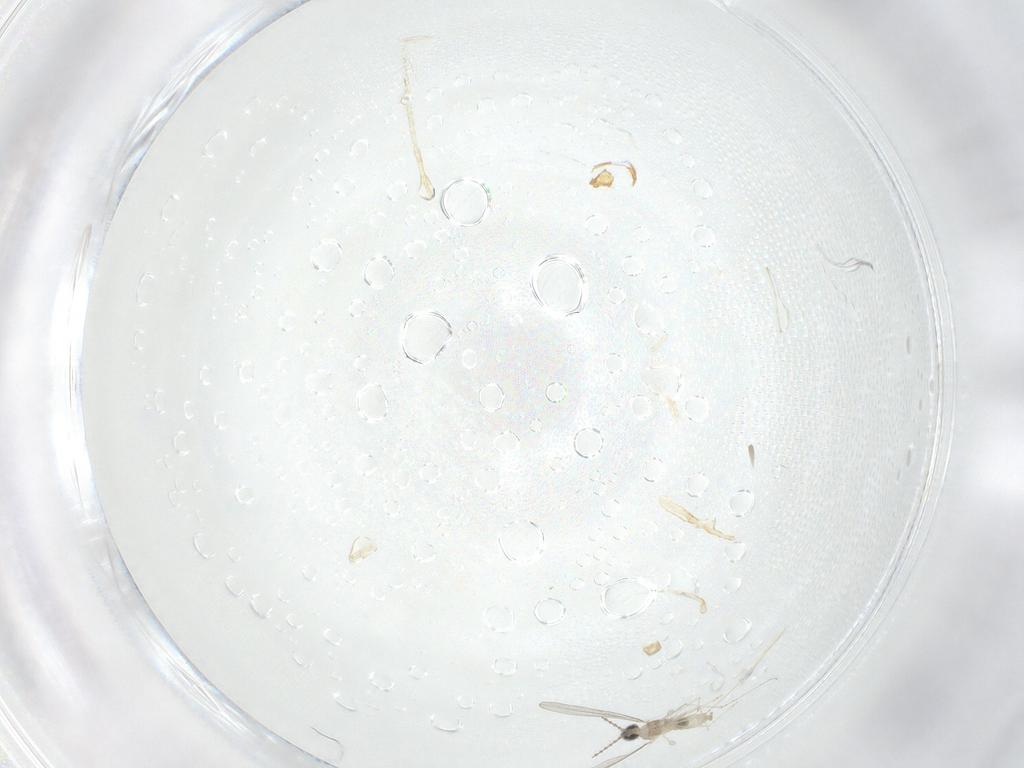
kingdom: Animalia
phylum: Arthropoda
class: Insecta
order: Diptera
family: Cecidomyiidae
